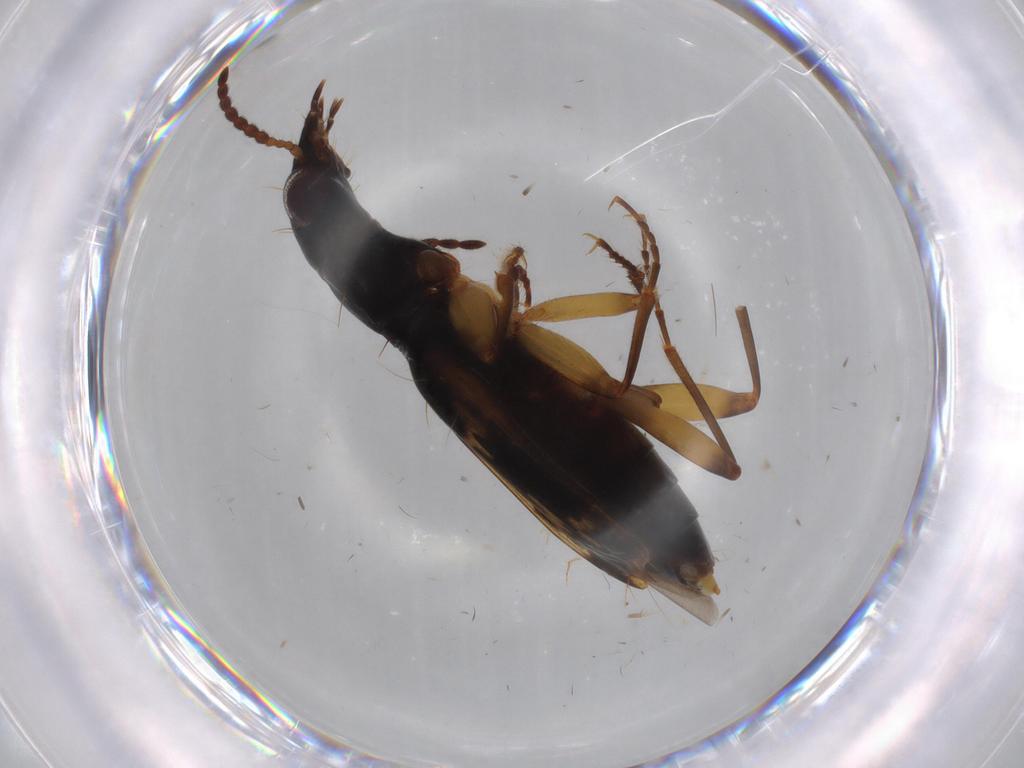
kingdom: Animalia
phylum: Arthropoda
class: Insecta
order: Coleoptera
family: Carabidae
